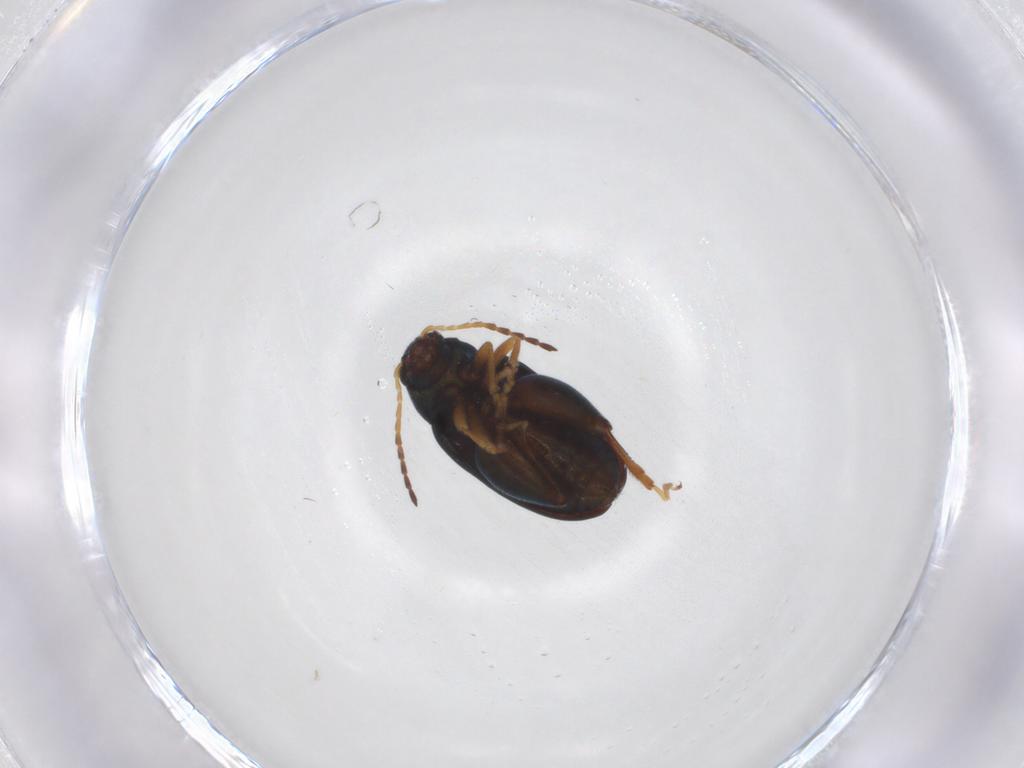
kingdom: Animalia
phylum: Arthropoda
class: Insecta
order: Coleoptera
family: Chrysomelidae
